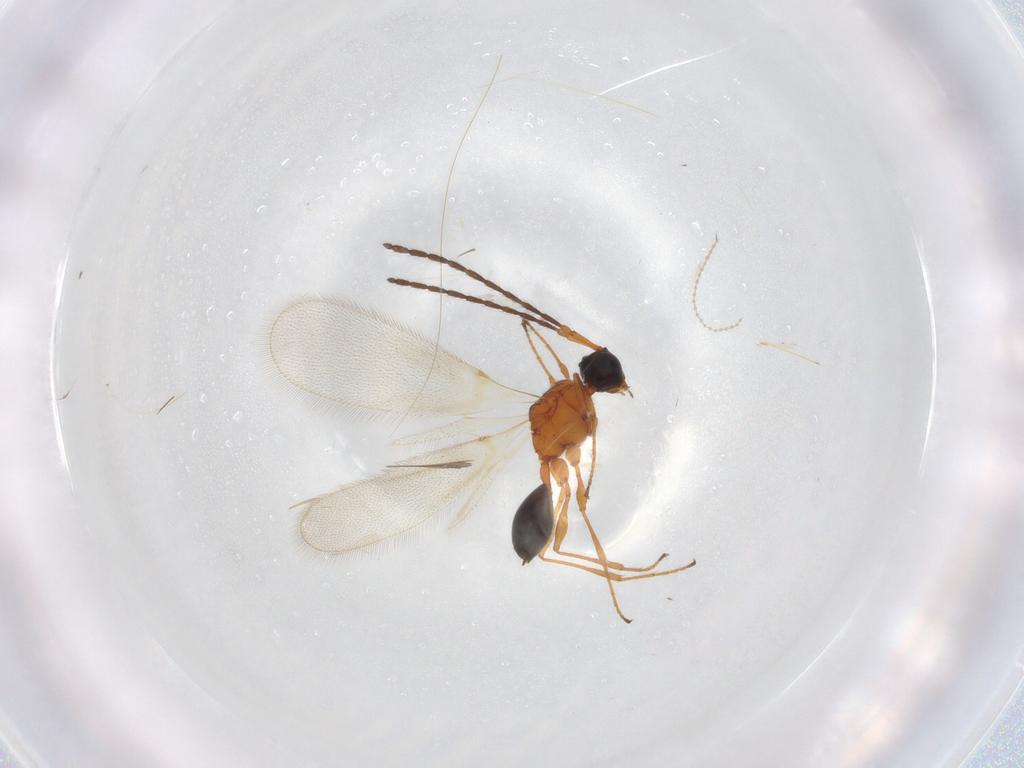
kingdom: Animalia
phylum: Arthropoda
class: Insecta
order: Hymenoptera
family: Diapriidae
